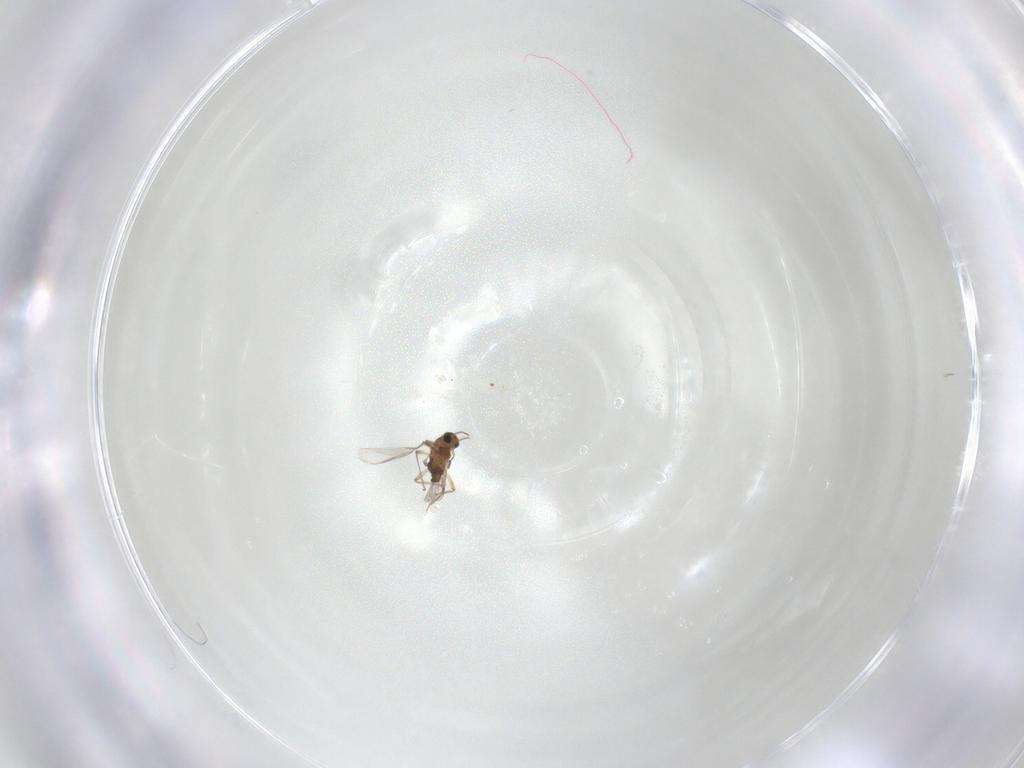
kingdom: Animalia
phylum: Arthropoda
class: Insecta
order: Diptera
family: Chironomidae
